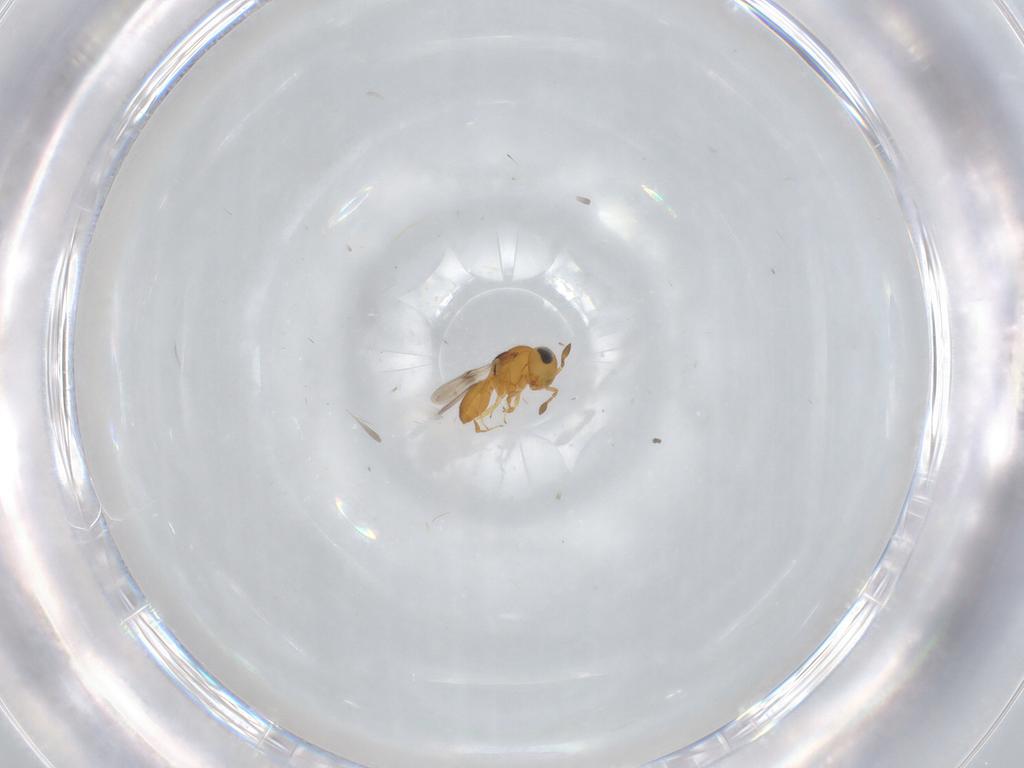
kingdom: Animalia
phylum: Arthropoda
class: Insecta
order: Hymenoptera
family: Scelionidae
